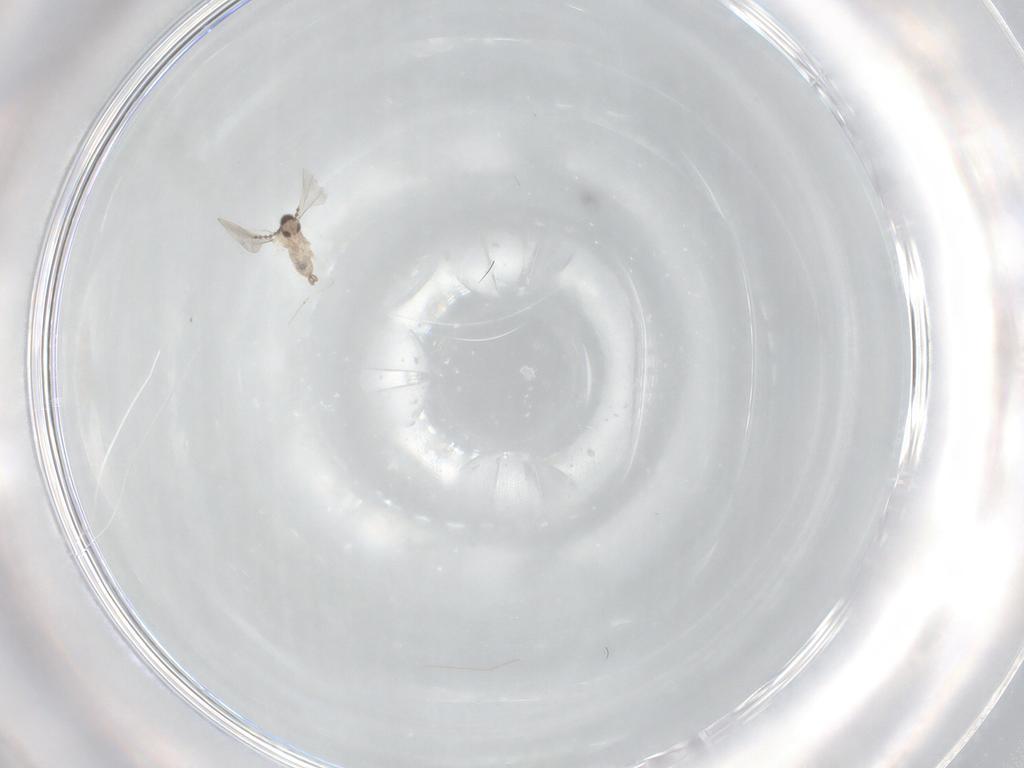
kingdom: Animalia
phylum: Arthropoda
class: Insecta
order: Diptera
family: Cecidomyiidae
